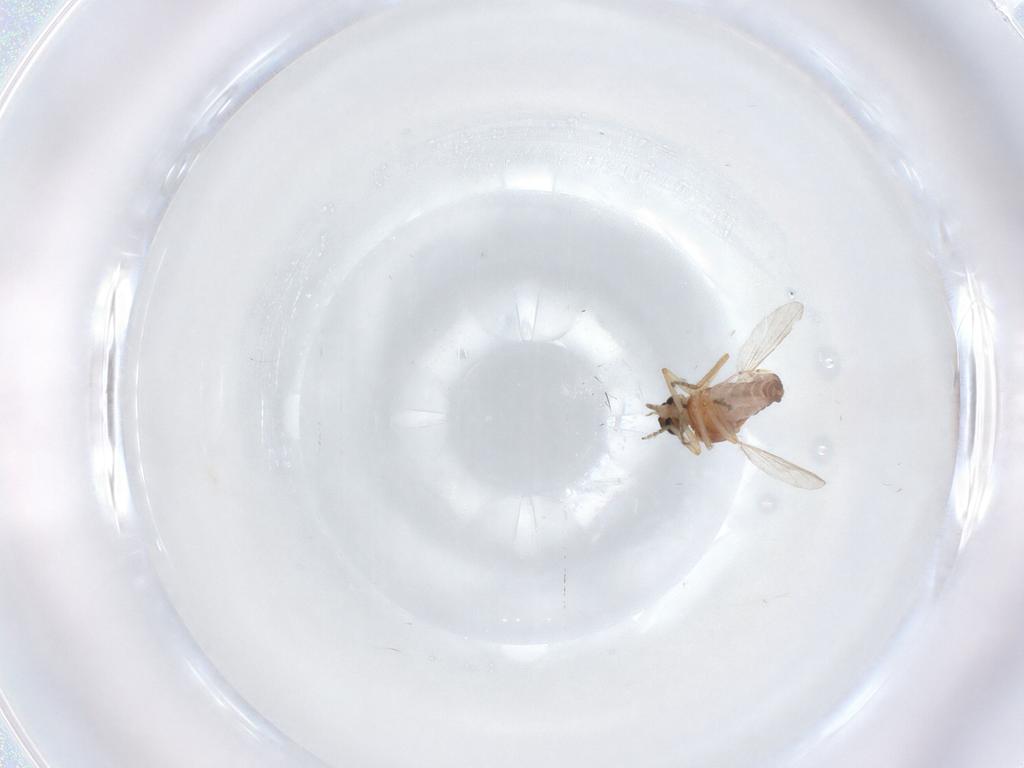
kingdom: Animalia
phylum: Arthropoda
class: Insecta
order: Diptera
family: Ceratopogonidae
